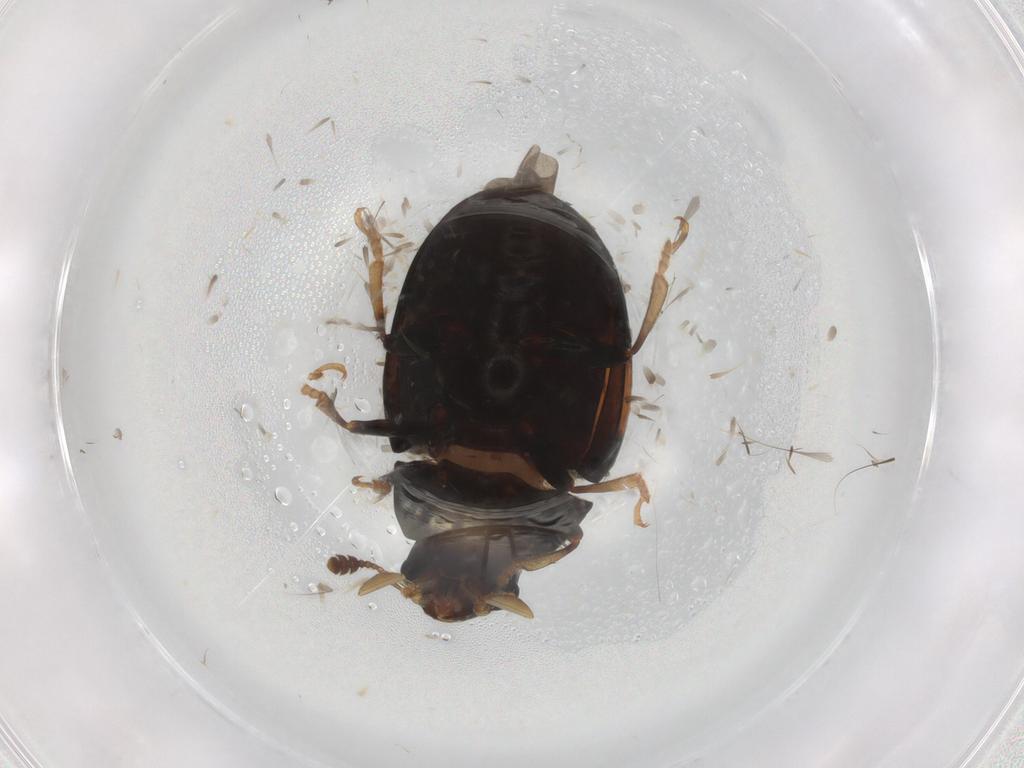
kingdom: Animalia
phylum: Arthropoda
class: Insecta
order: Coleoptera
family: Erotylidae
